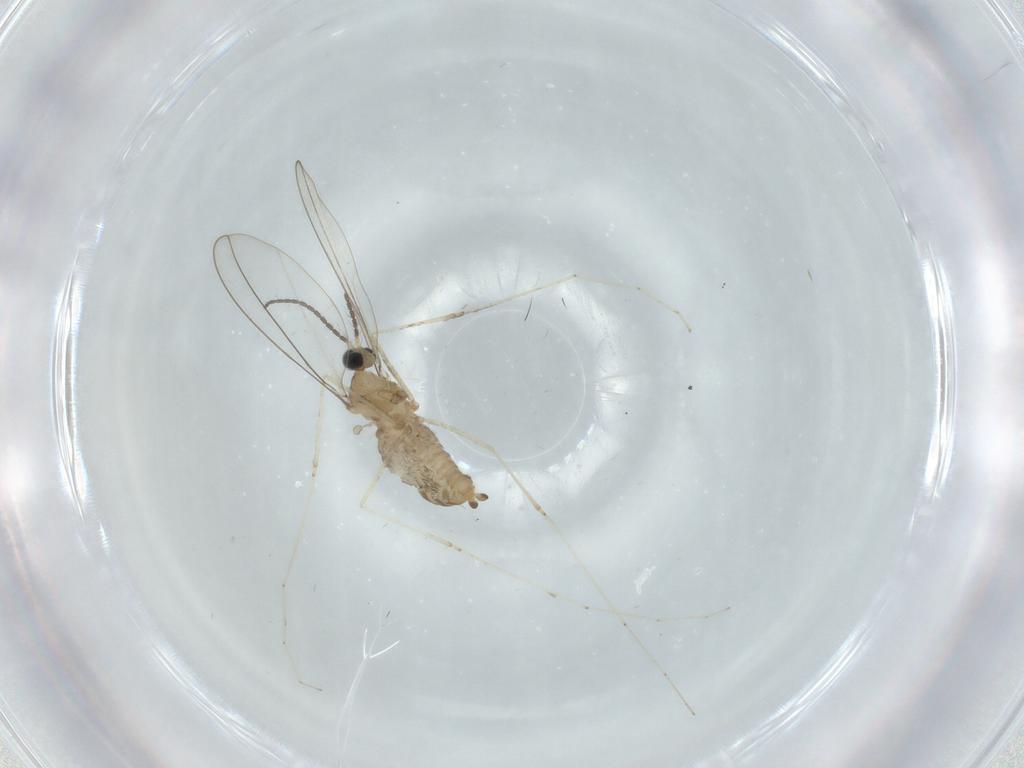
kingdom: Animalia
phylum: Arthropoda
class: Insecta
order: Diptera
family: Cecidomyiidae
